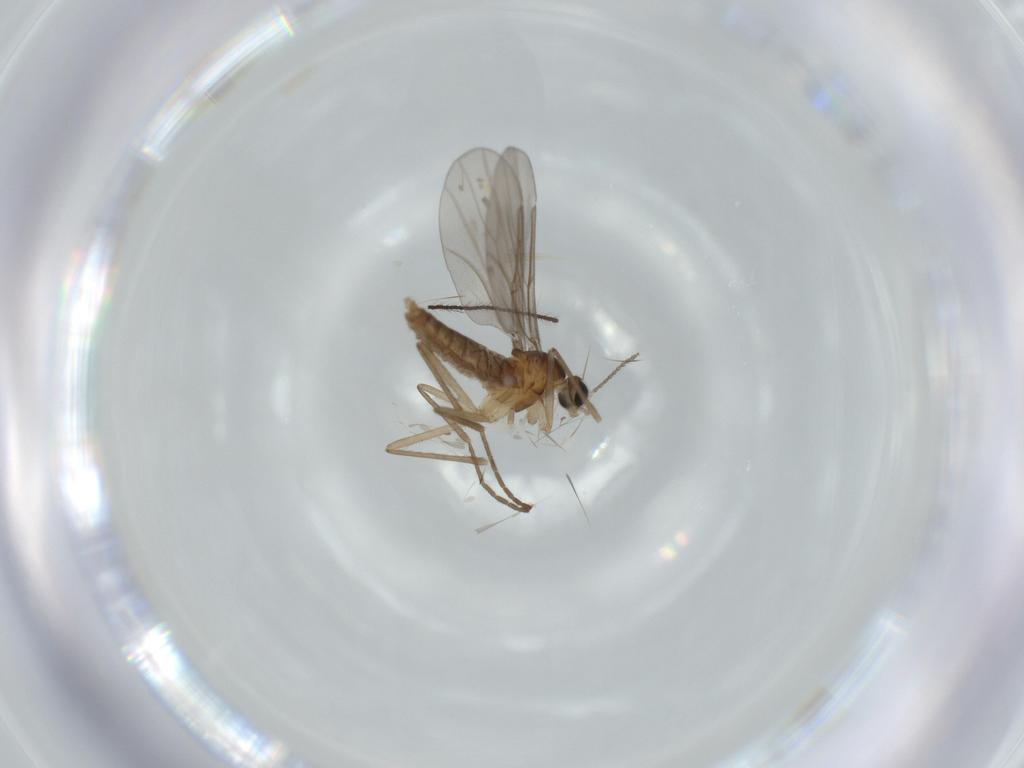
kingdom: Animalia
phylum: Arthropoda
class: Insecta
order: Diptera
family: Cecidomyiidae
